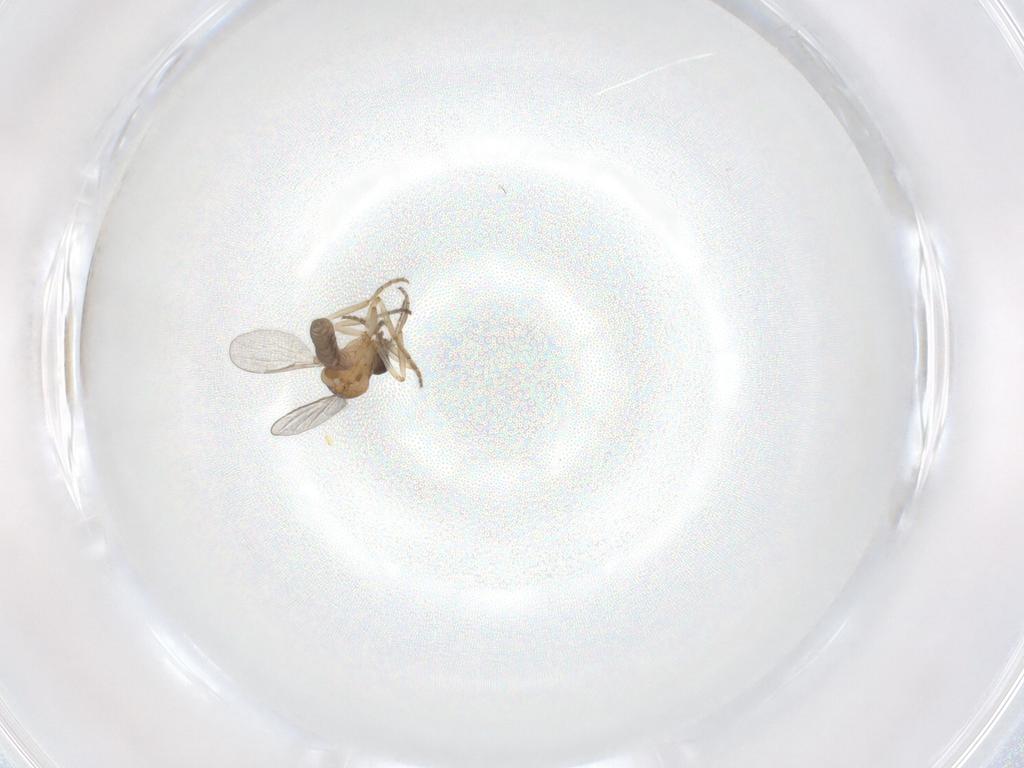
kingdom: Animalia
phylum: Arthropoda
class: Insecta
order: Diptera
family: Ceratopogonidae
